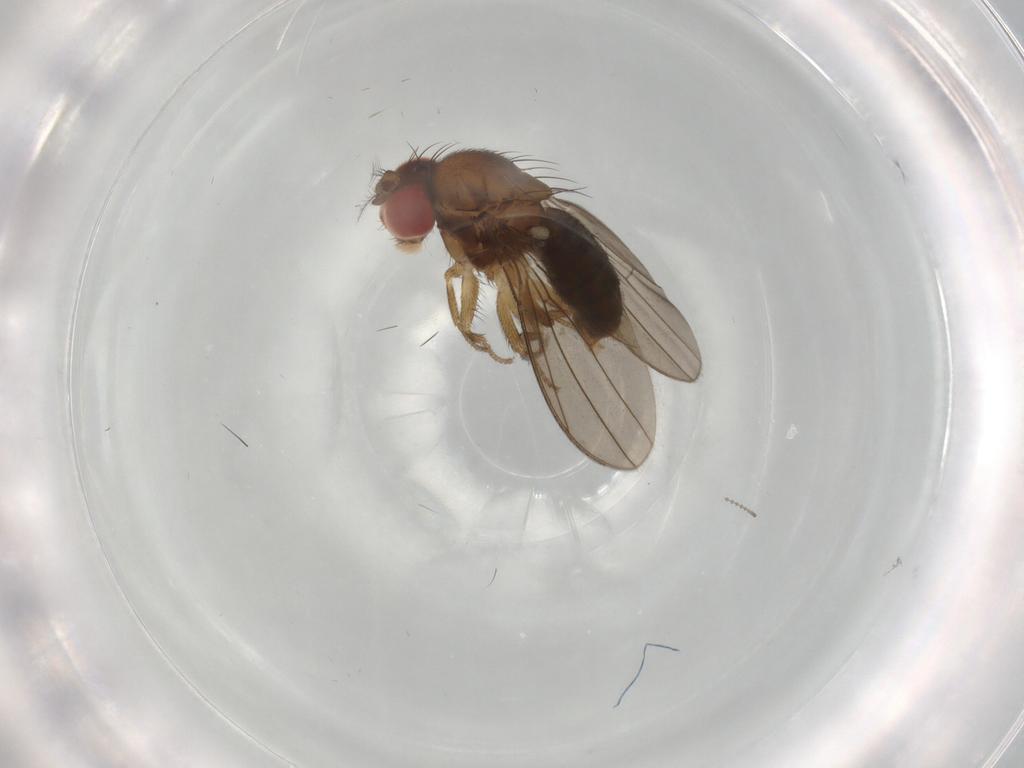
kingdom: Animalia
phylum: Arthropoda
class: Insecta
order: Diptera
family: Drosophilidae
